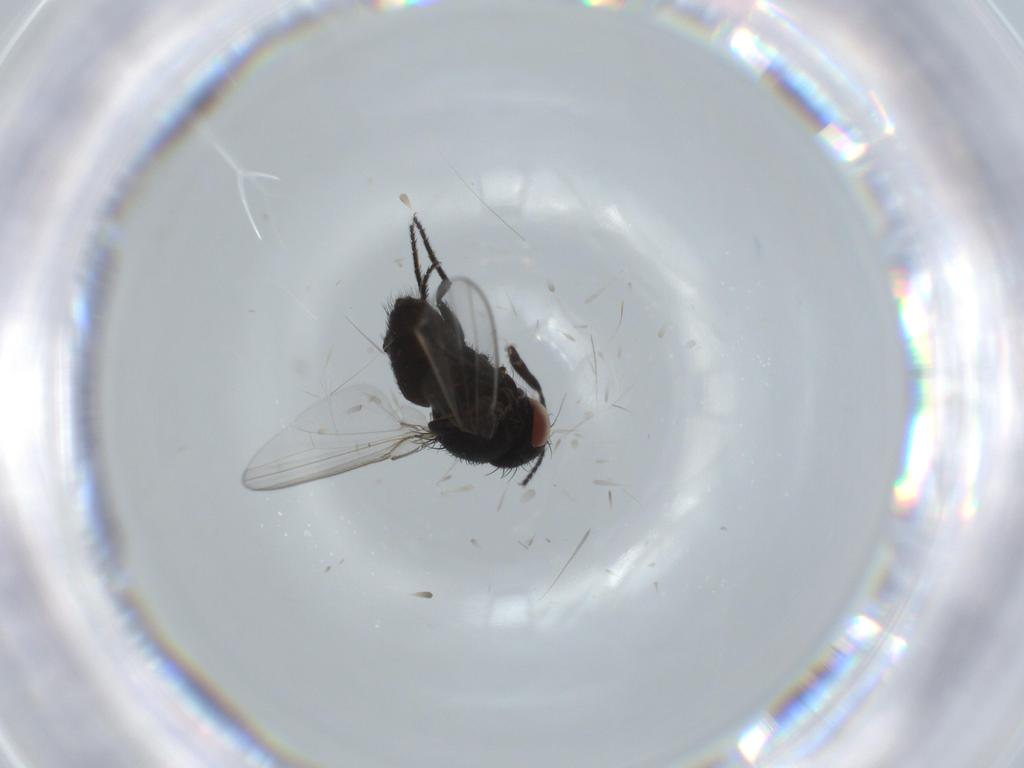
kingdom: Animalia
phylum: Arthropoda
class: Insecta
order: Diptera
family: Milichiidae
